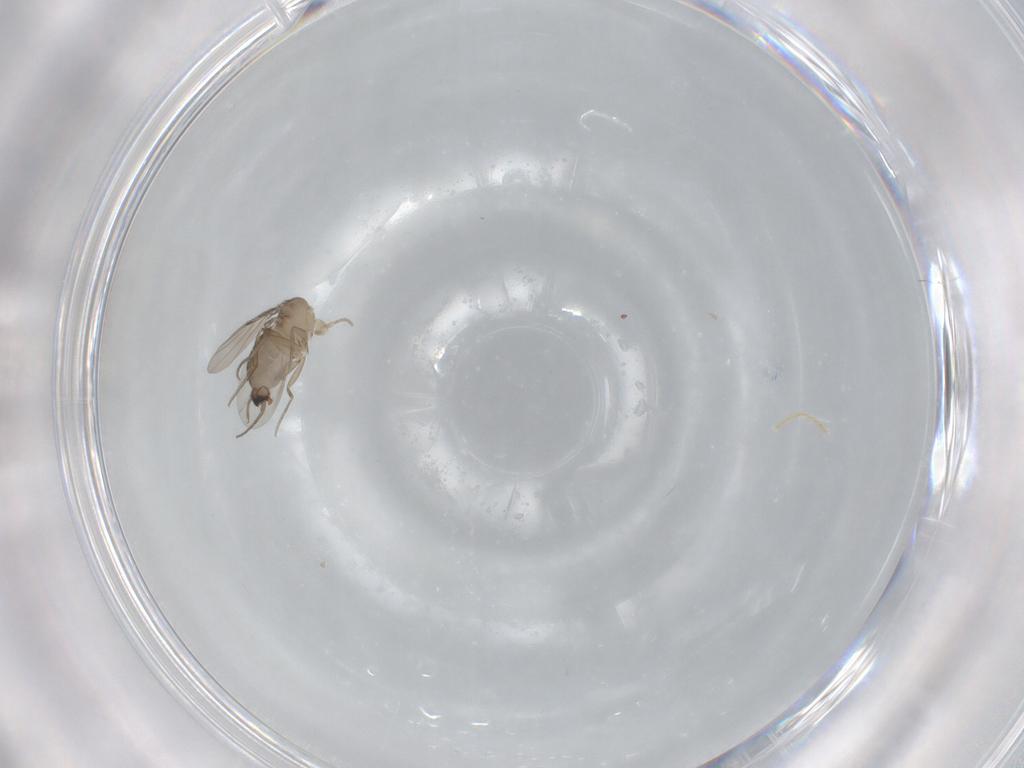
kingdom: Animalia
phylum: Arthropoda
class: Insecta
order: Diptera
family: Phoridae
